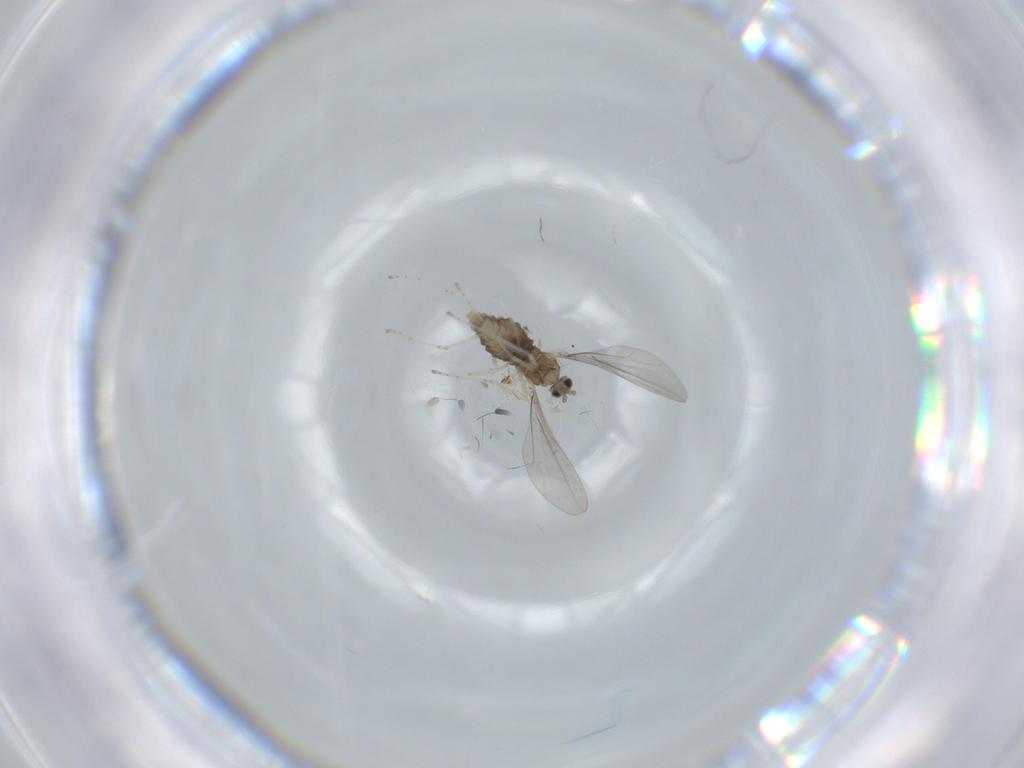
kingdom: Animalia
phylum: Arthropoda
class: Insecta
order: Diptera
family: Cecidomyiidae
